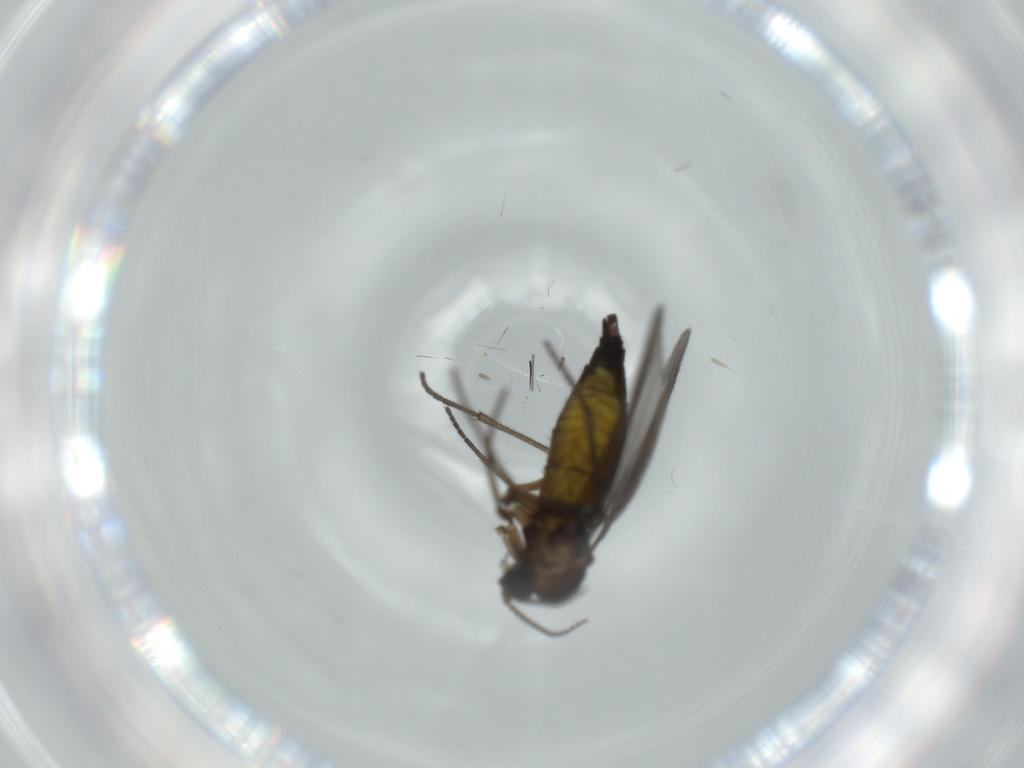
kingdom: Animalia
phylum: Arthropoda
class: Insecta
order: Diptera
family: Sciaridae
